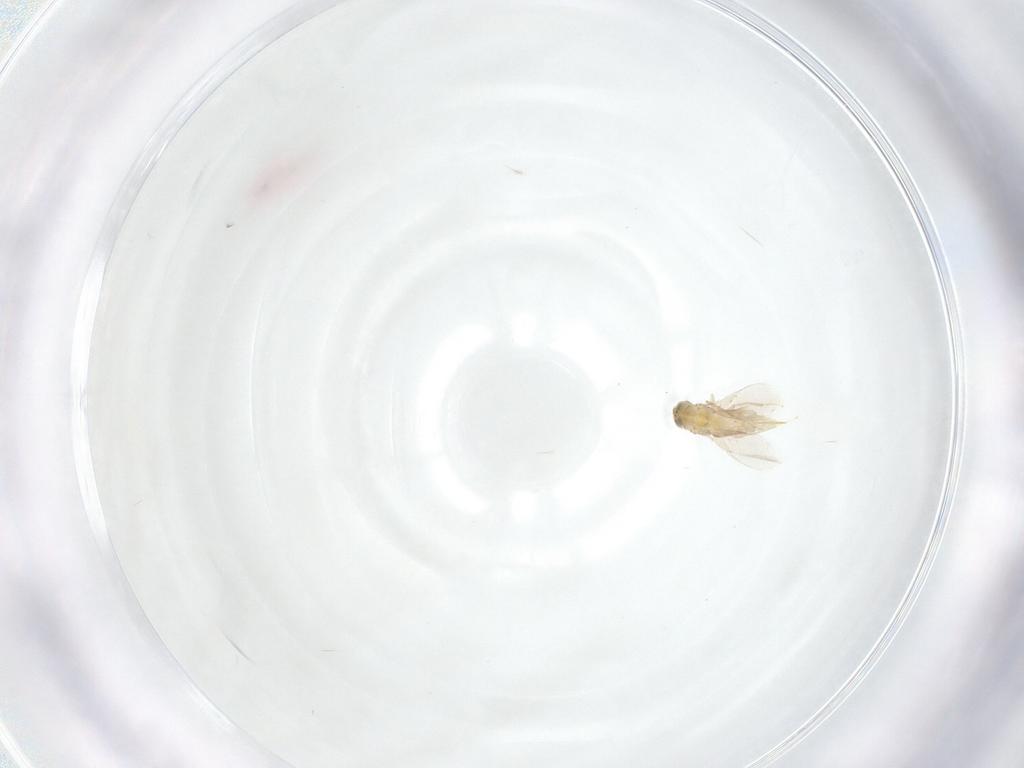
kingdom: Animalia
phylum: Arthropoda
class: Insecta
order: Hymenoptera
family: Aphelinidae
